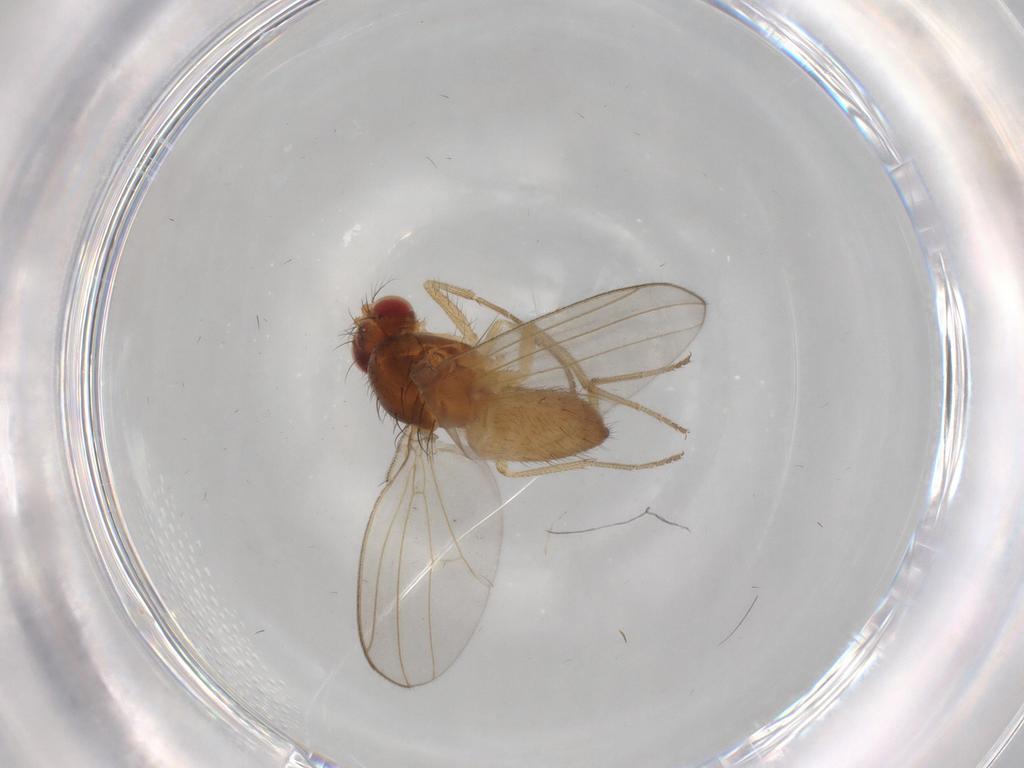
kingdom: Animalia
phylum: Arthropoda
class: Insecta
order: Diptera
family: Drosophilidae
